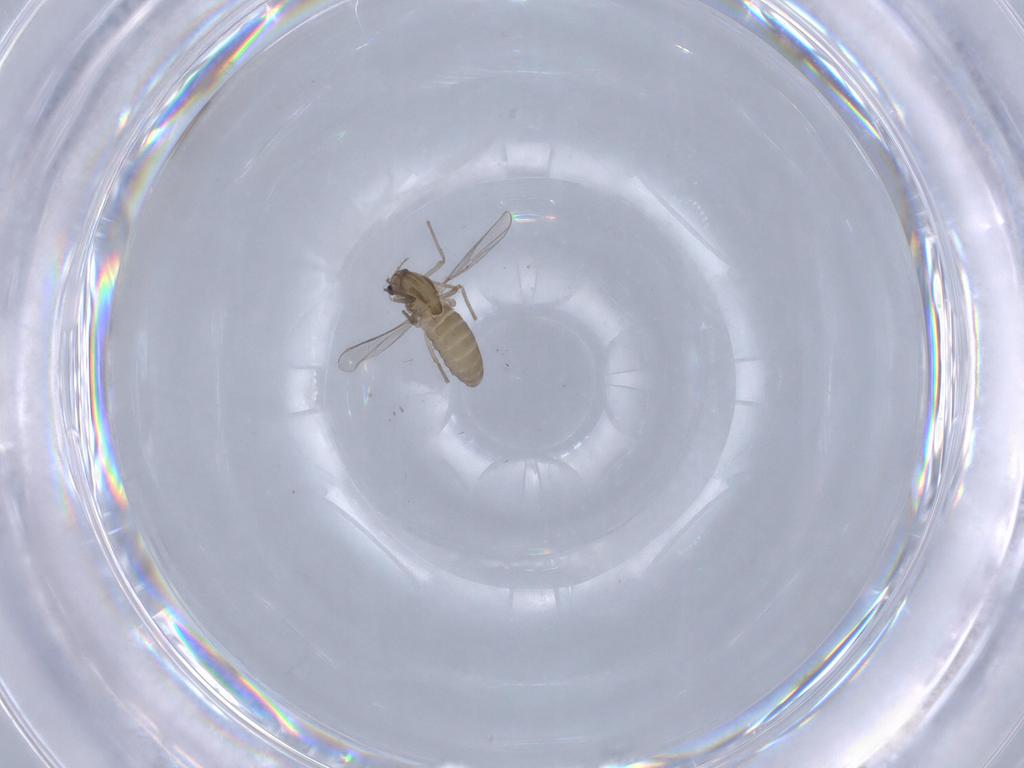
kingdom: Animalia
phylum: Arthropoda
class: Insecta
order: Diptera
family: Chironomidae
